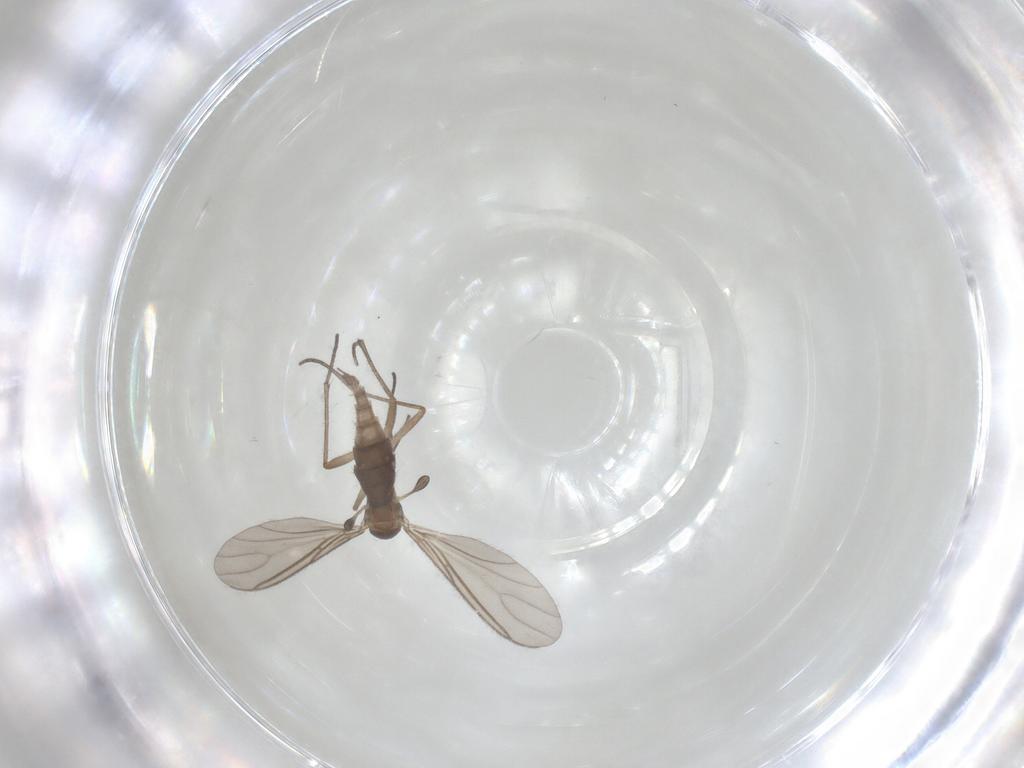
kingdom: Animalia
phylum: Arthropoda
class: Insecta
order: Diptera
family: Sciaridae
